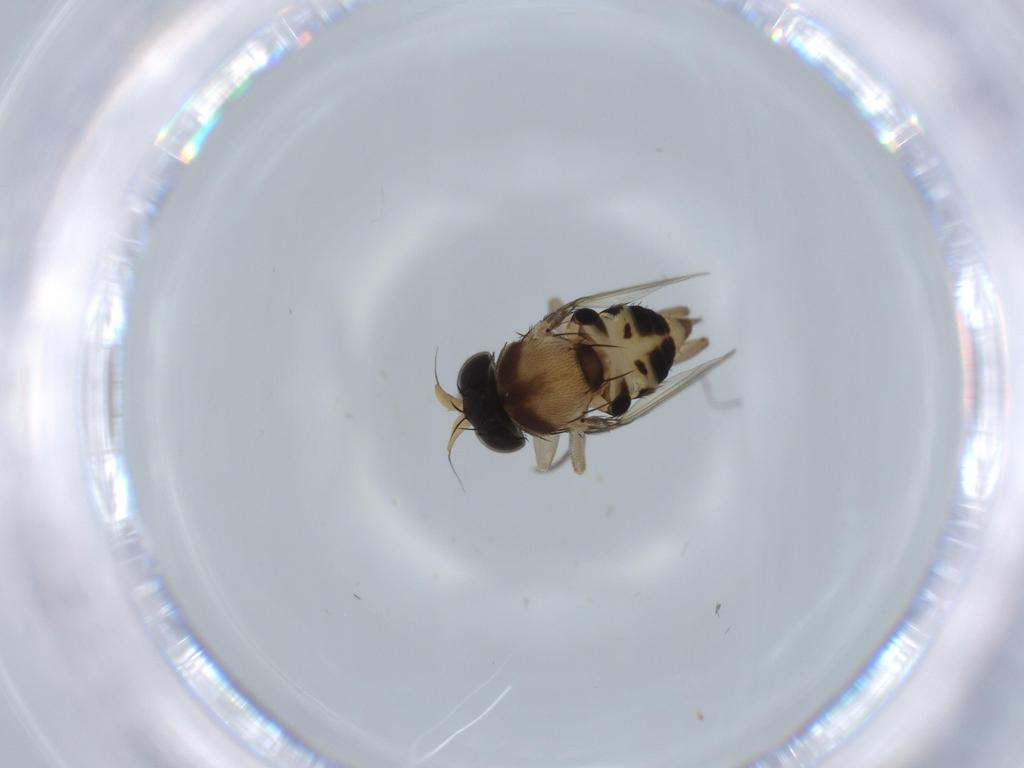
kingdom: Animalia
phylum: Arthropoda
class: Insecta
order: Diptera
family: Phoridae
